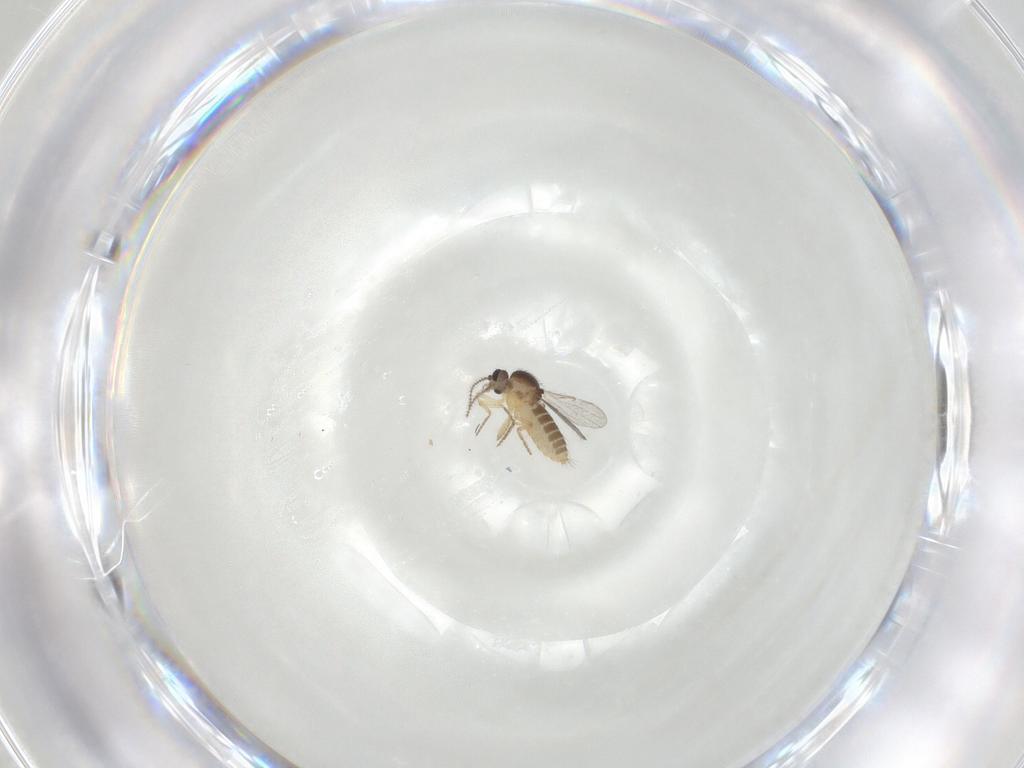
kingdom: Animalia
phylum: Arthropoda
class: Insecta
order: Diptera
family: Ceratopogonidae
